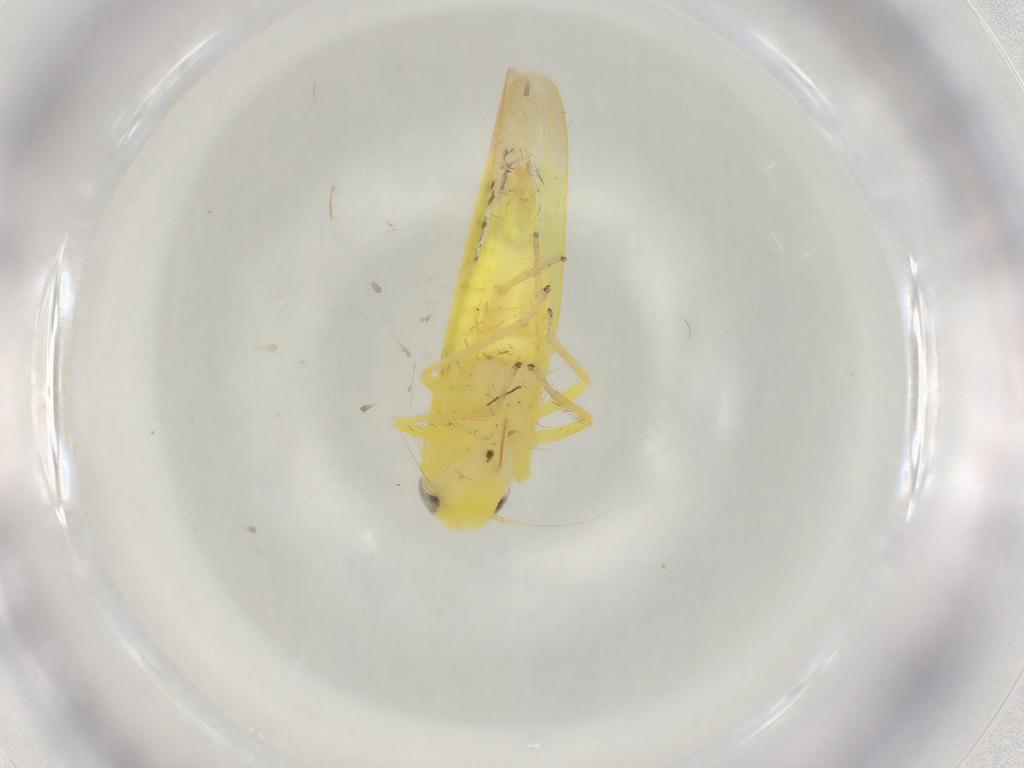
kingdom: Animalia
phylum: Arthropoda
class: Insecta
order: Hemiptera
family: Cicadellidae
